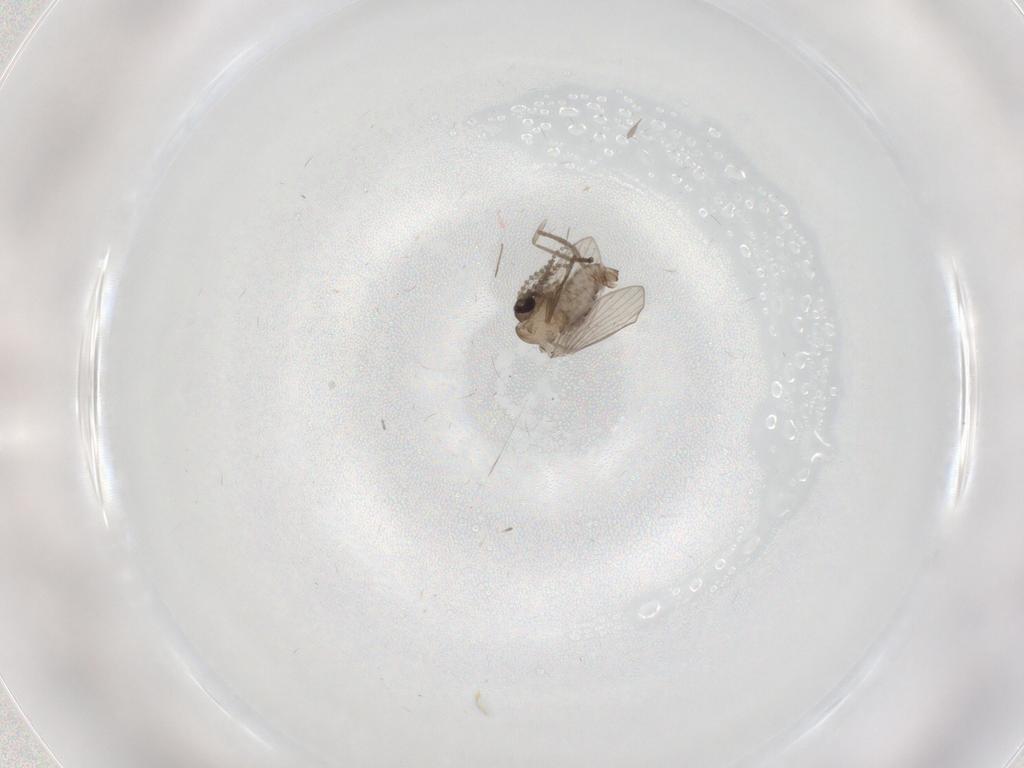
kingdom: Animalia
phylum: Arthropoda
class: Insecta
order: Diptera
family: Psychodidae
